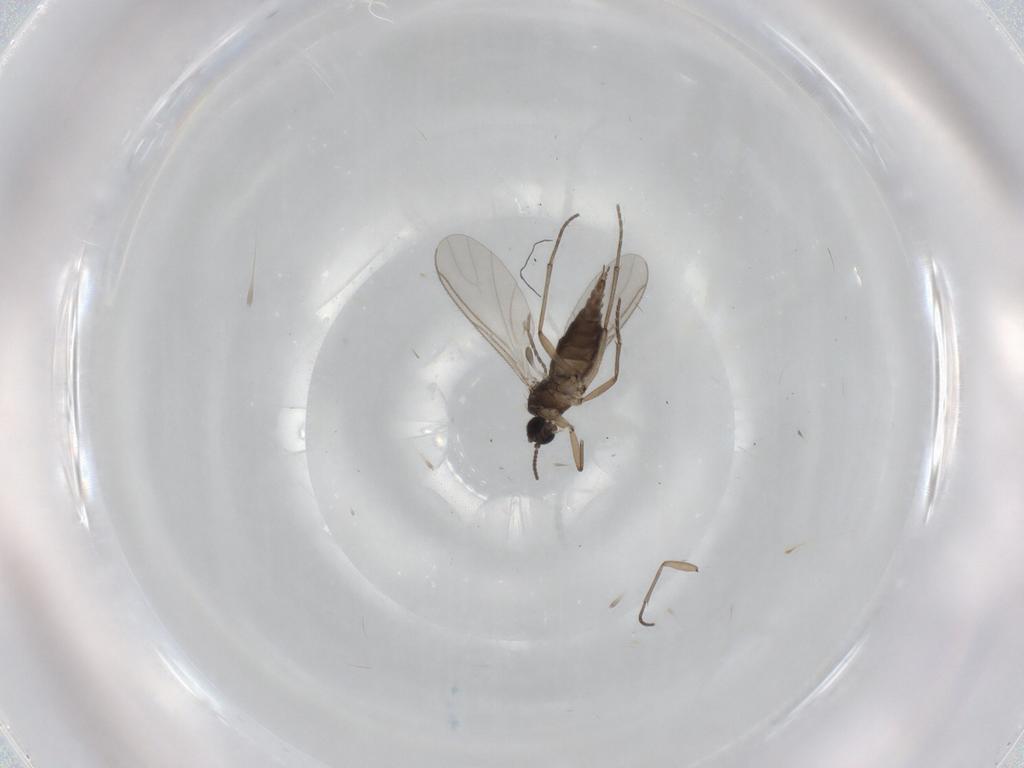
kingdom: Animalia
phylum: Arthropoda
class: Insecta
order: Diptera
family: Sciaridae
